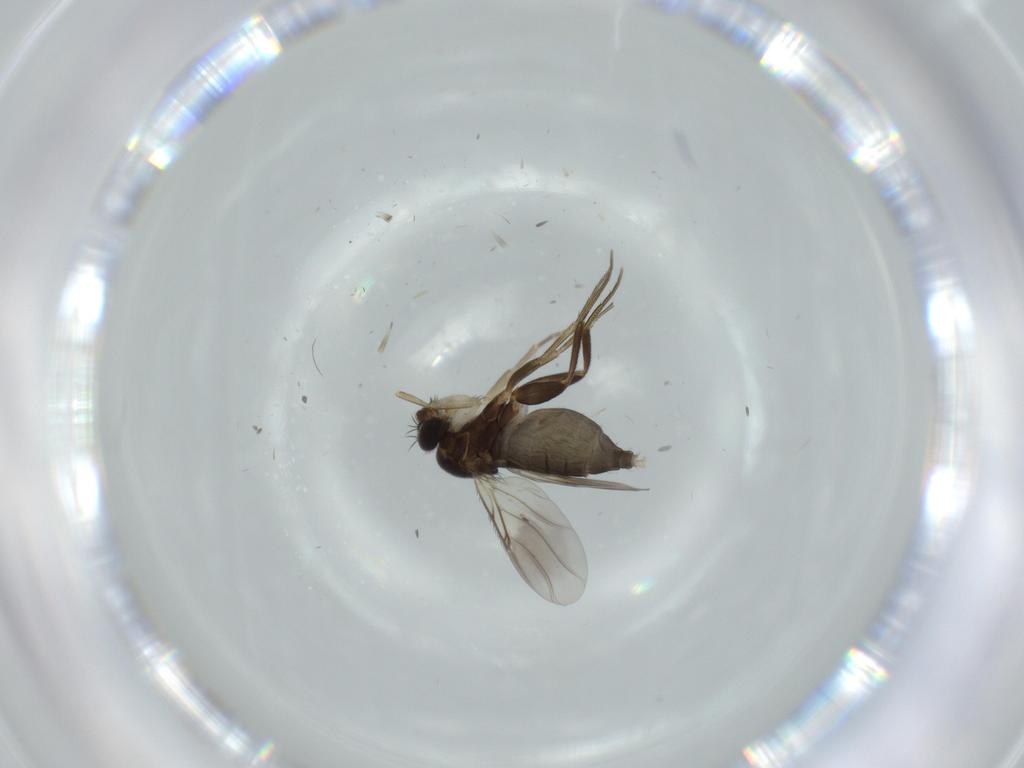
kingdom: Animalia
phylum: Arthropoda
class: Insecta
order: Diptera
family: Phoridae
